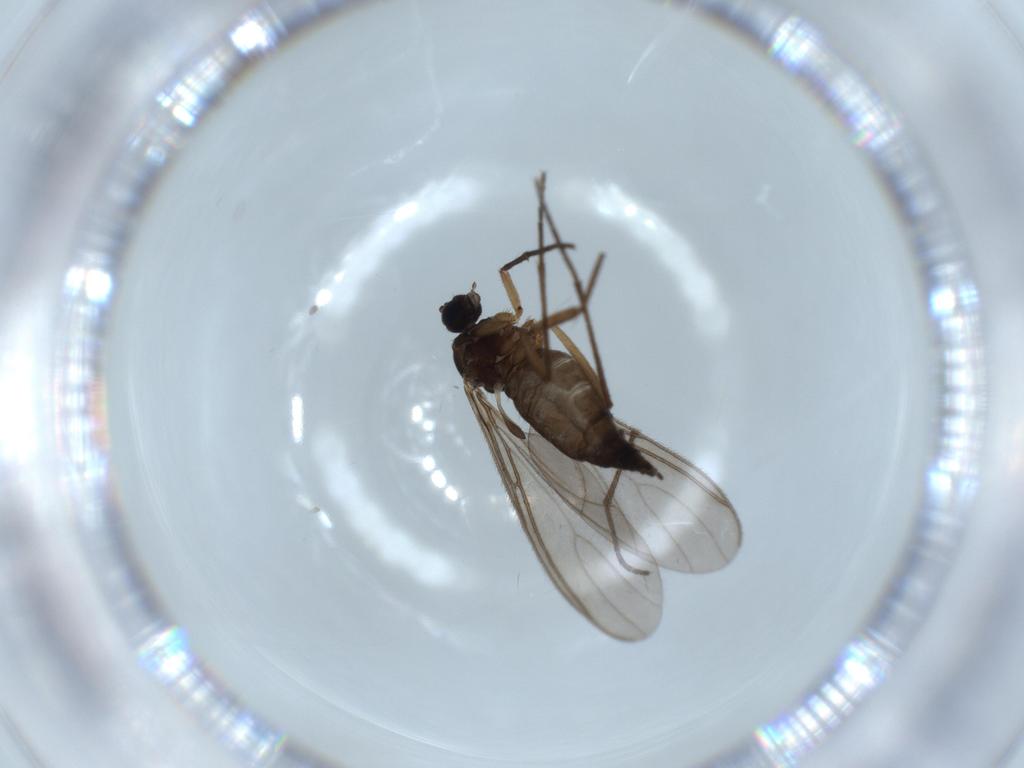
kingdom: Animalia
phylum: Arthropoda
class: Insecta
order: Diptera
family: Sciaridae
